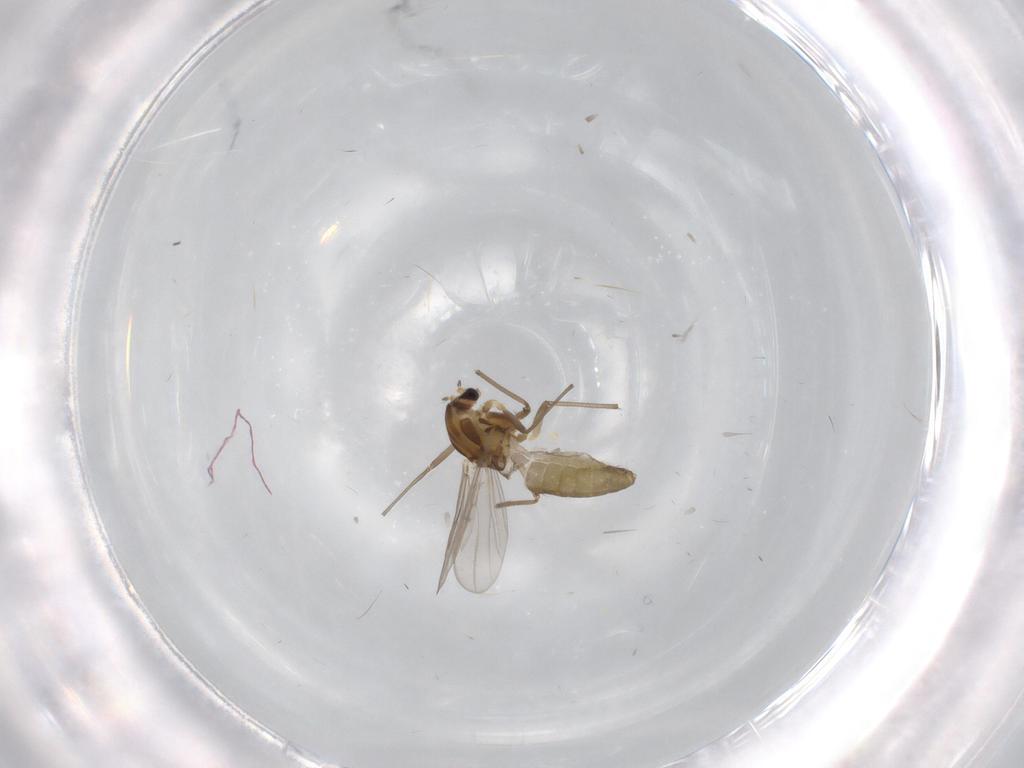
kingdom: Animalia
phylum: Arthropoda
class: Insecta
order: Diptera
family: Chironomidae
